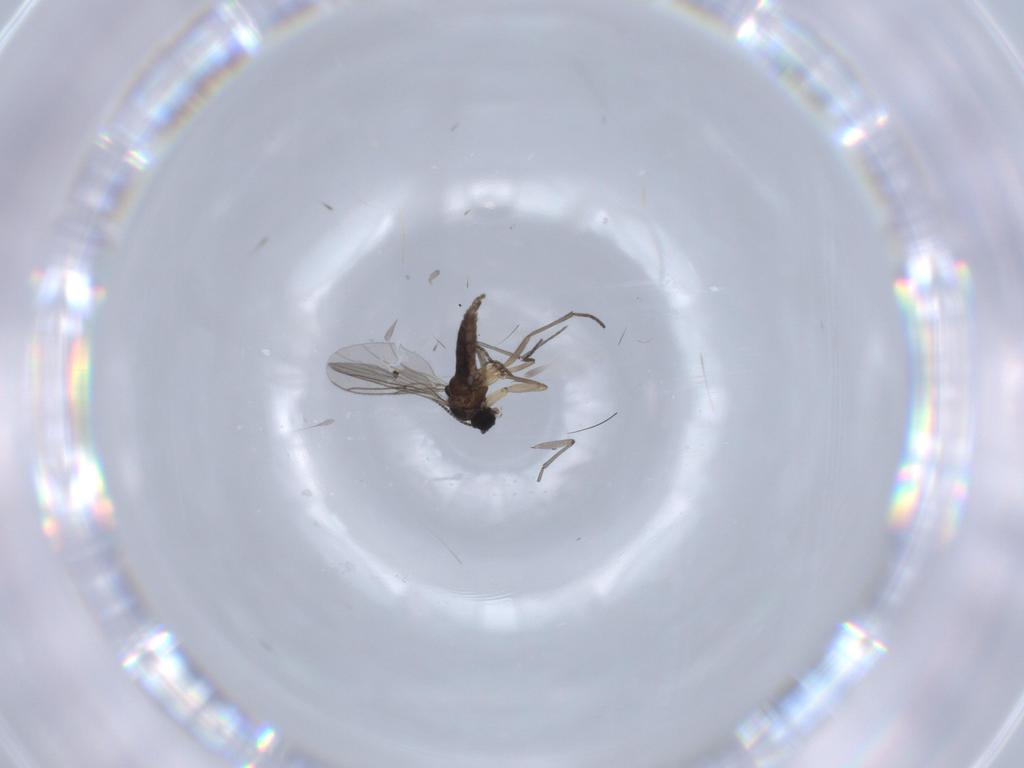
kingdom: Animalia
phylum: Arthropoda
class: Insecta
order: Diptera
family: Sciaridae
